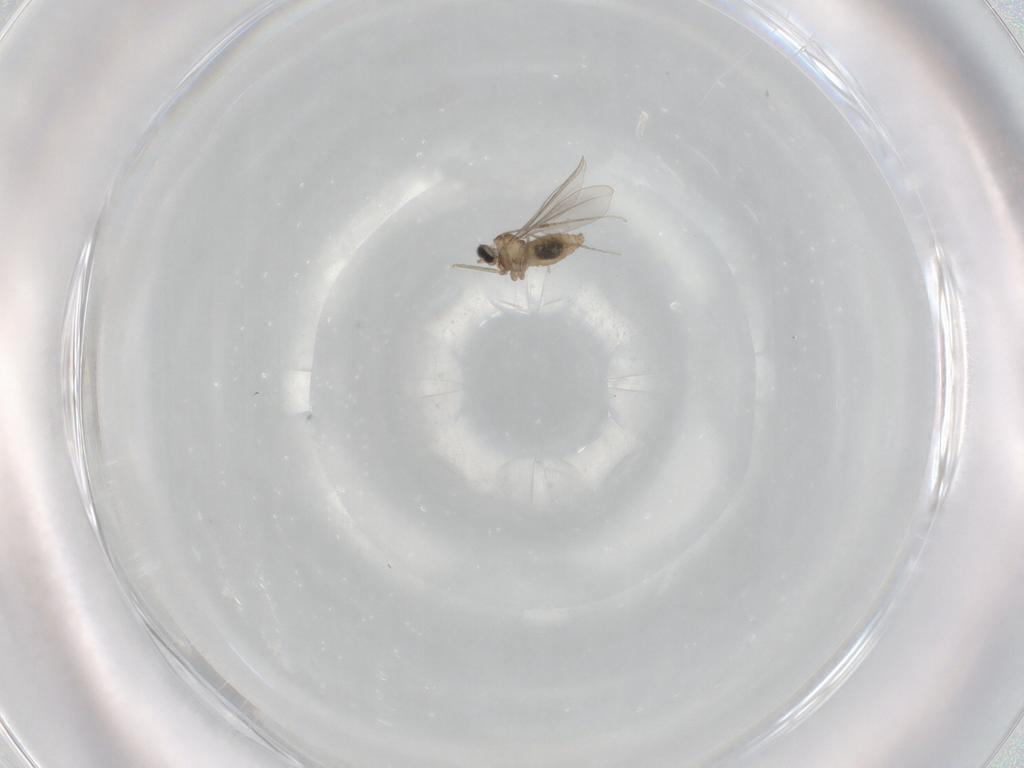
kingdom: Animalia
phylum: Arthropoda
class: Insecta
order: Diptera
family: Cecidomyiidae
